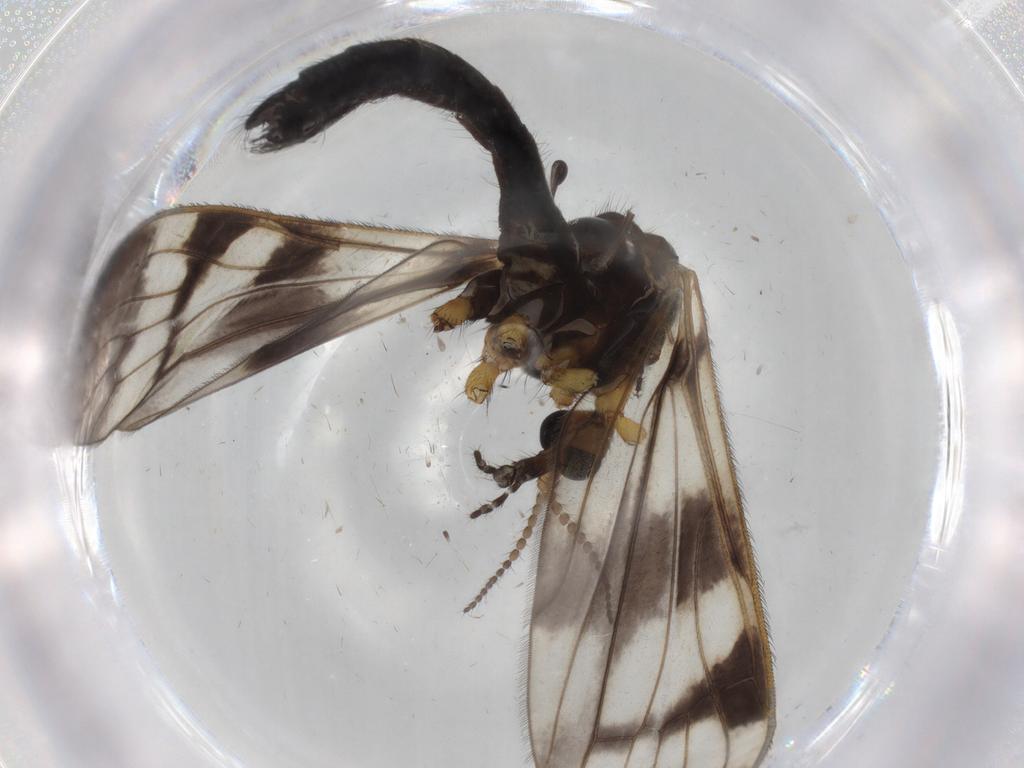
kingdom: Animalia
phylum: Arthropoda
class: Insecta
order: Diptera
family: Limoniidae
